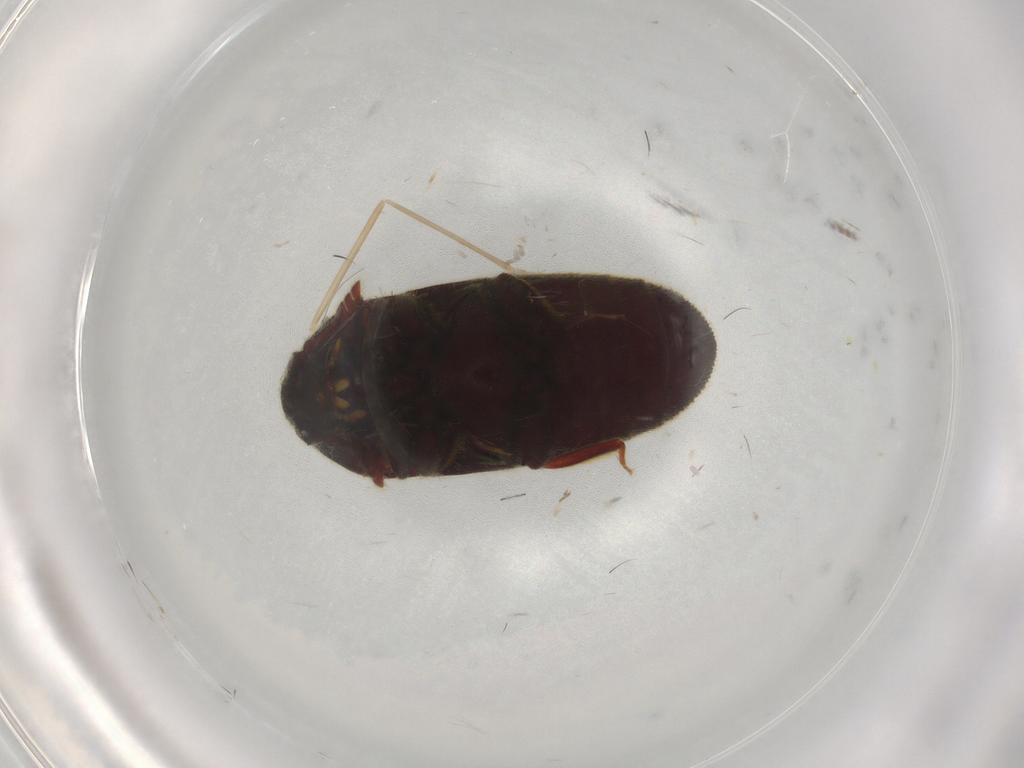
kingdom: Animalia
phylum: Arthropoda
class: Insecta
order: Coleoptera
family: Throscidae
